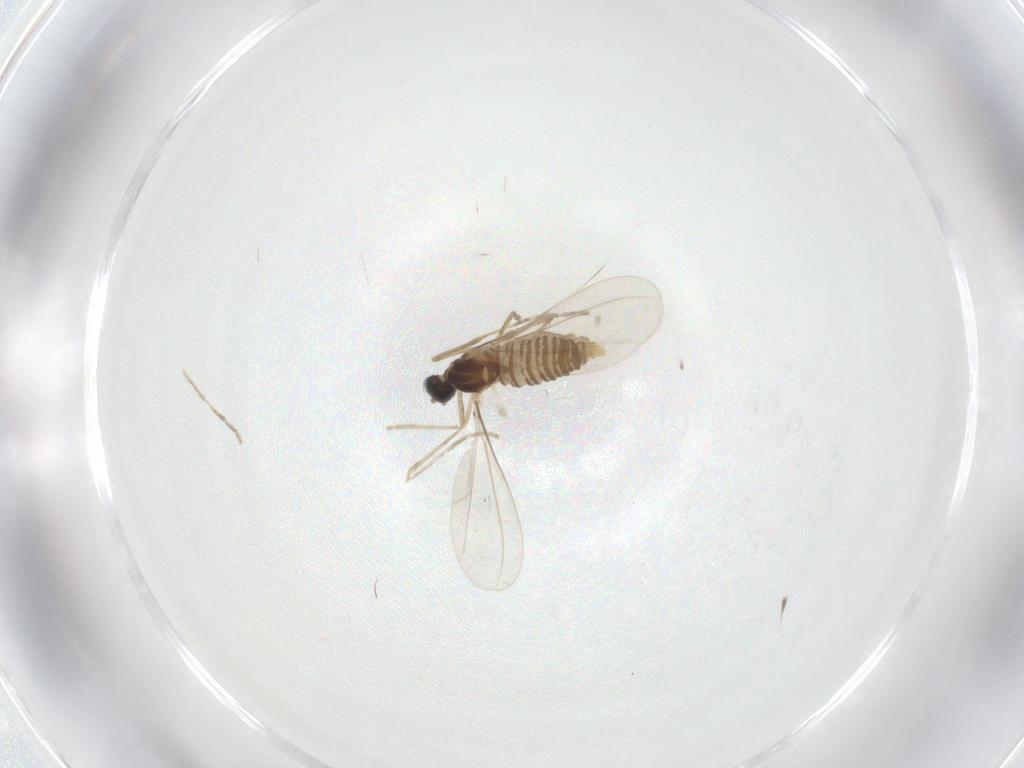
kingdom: Animalia
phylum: Arthropoda
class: Insecta
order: Diptera
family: Cecidomyiidae
